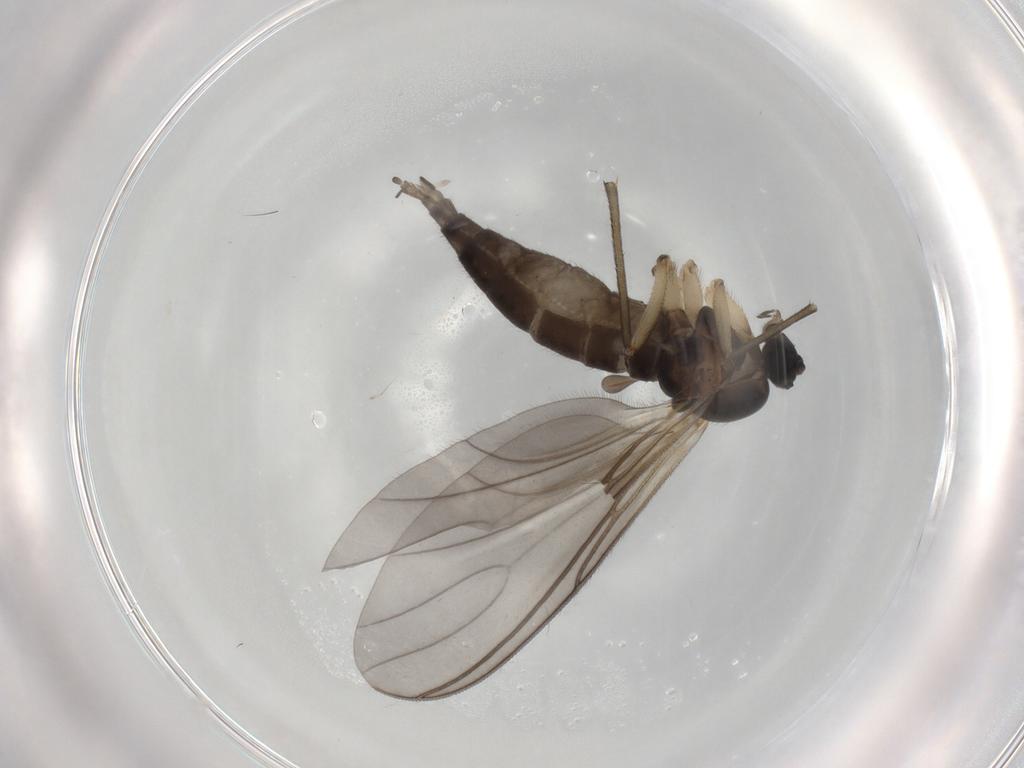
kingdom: Animalia
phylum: Arthropoda
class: Insecta
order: Diptera
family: Sciaridae
